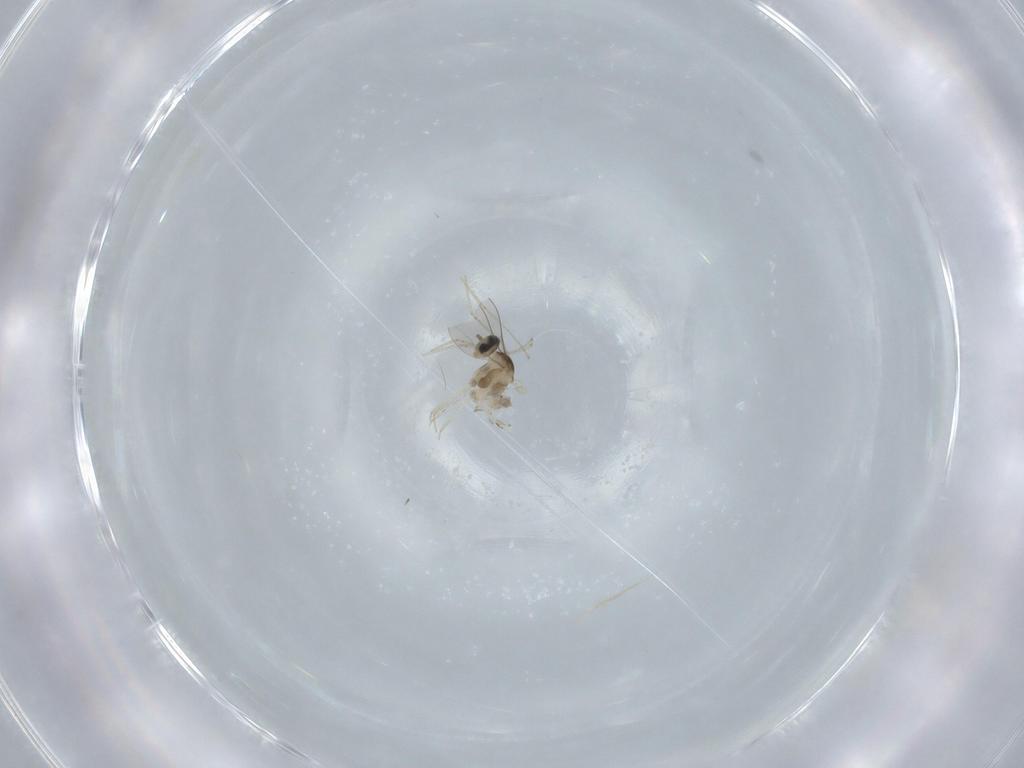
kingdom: Animalia
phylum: Arthropoda
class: Insecta
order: Diptera
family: Cecidomyiidae
